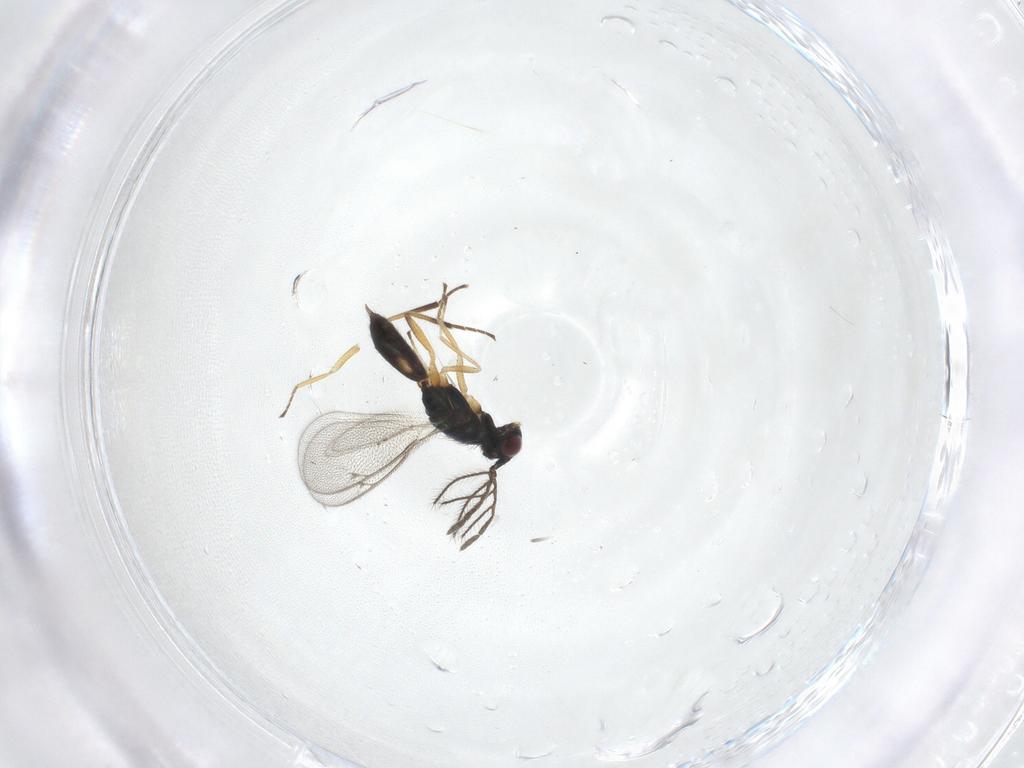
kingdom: Animalia
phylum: Arthropoda
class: Insecta
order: Hymenoptera
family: Eulophidae
